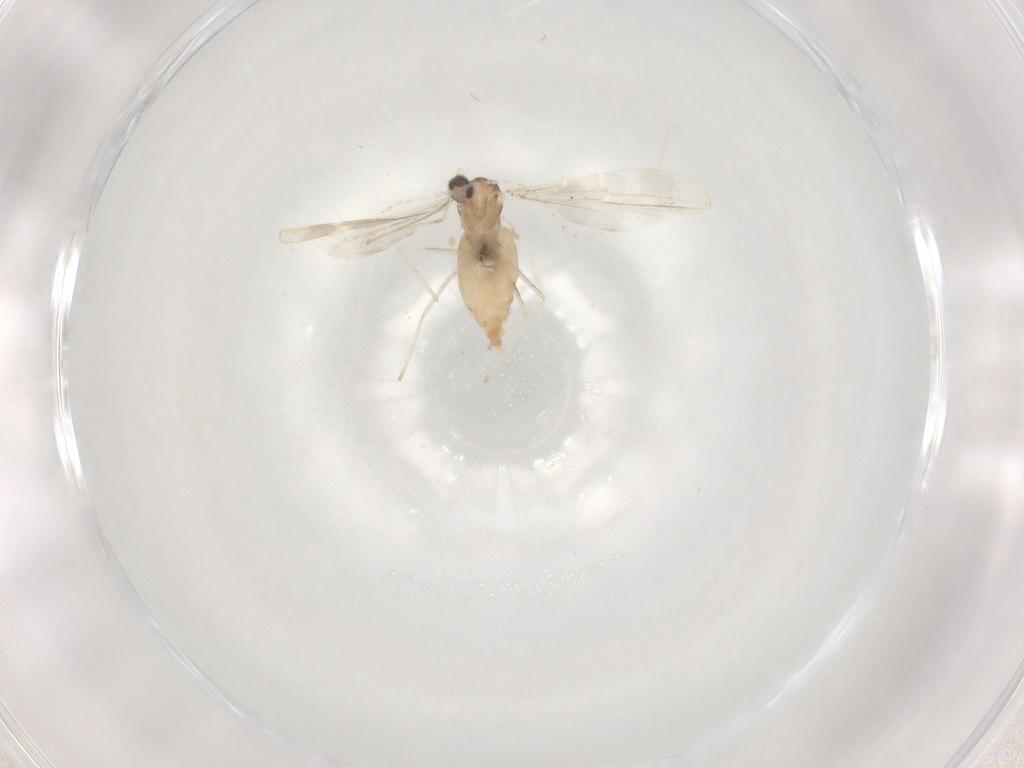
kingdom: Animalia
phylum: Arthropoda
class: Insecta
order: Diptera
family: Cecidomyiidae
